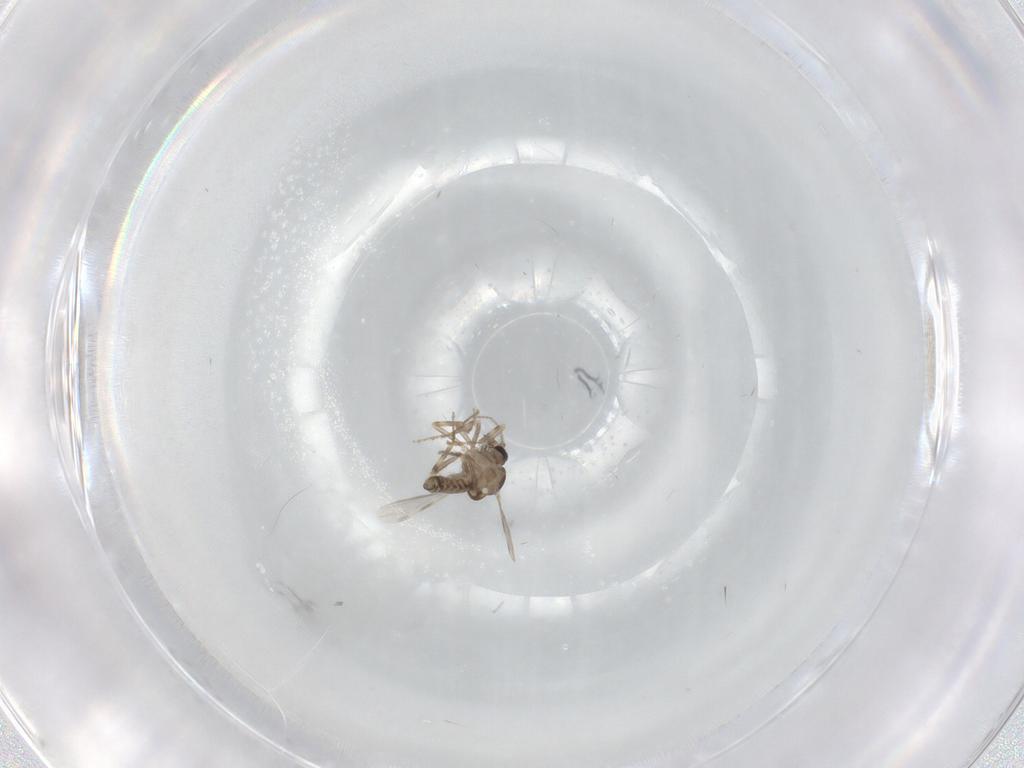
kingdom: Animalia
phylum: Arthropoda
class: Insecta
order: Diptera
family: Ceratopogonidae
